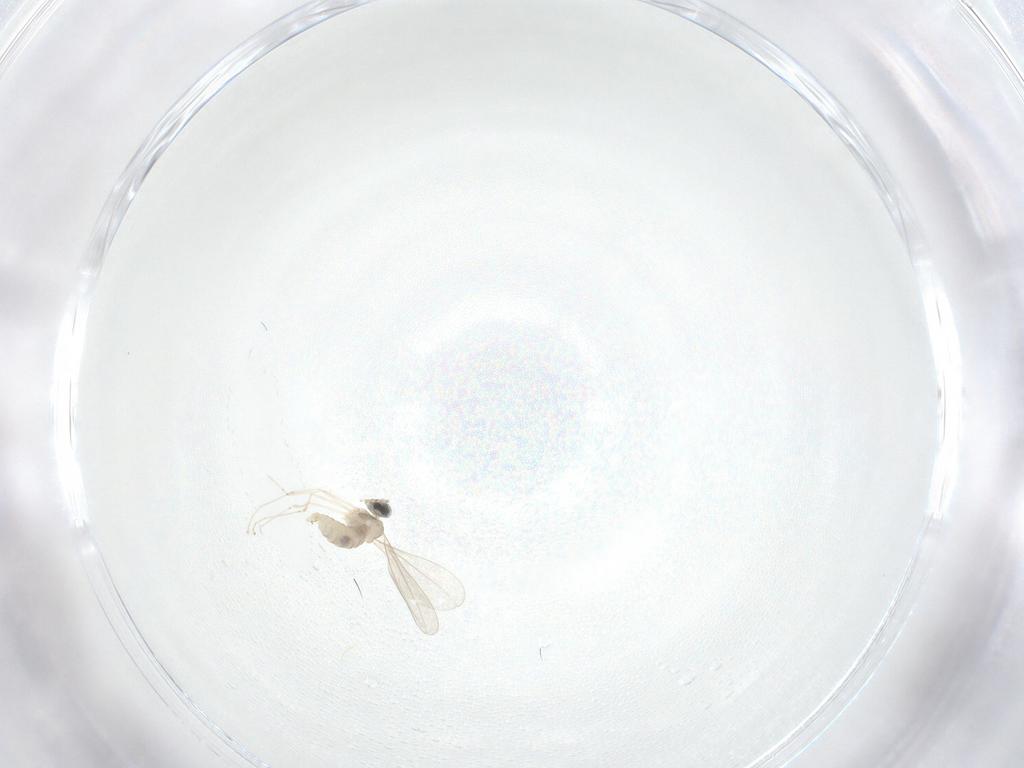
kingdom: Animalia
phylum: Arthropoda
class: Insecta
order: Diptera
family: Cecidomyiidae
